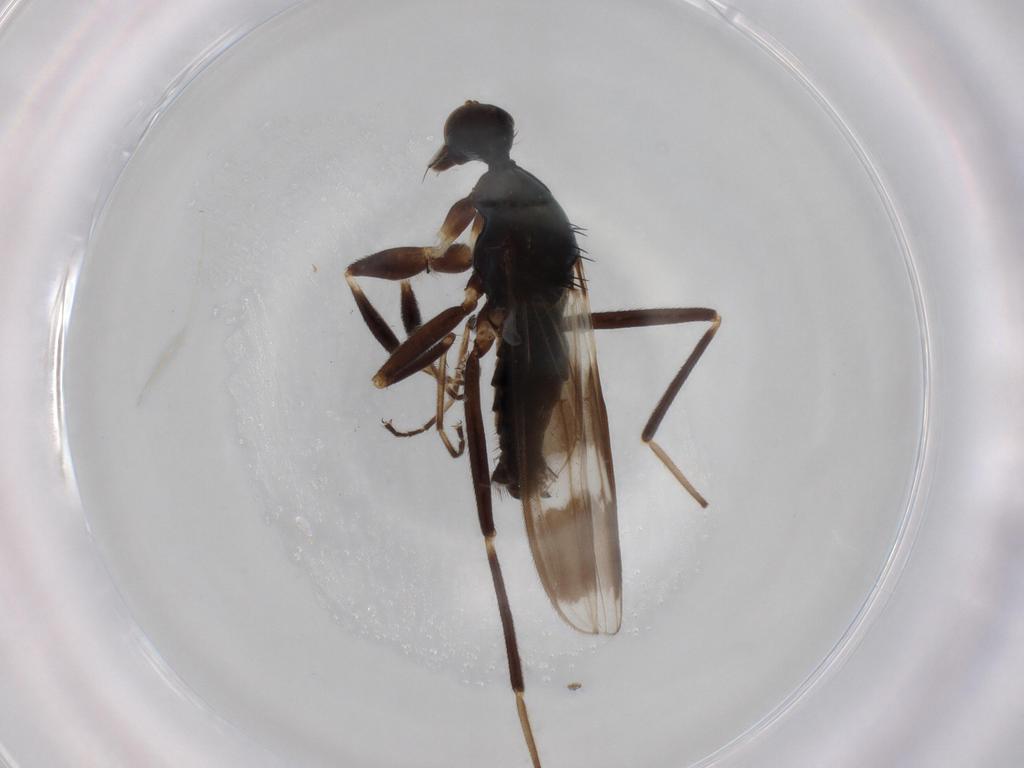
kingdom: Animalia
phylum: Arthropoda
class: Insecta
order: Diptera
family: Hybotidae
